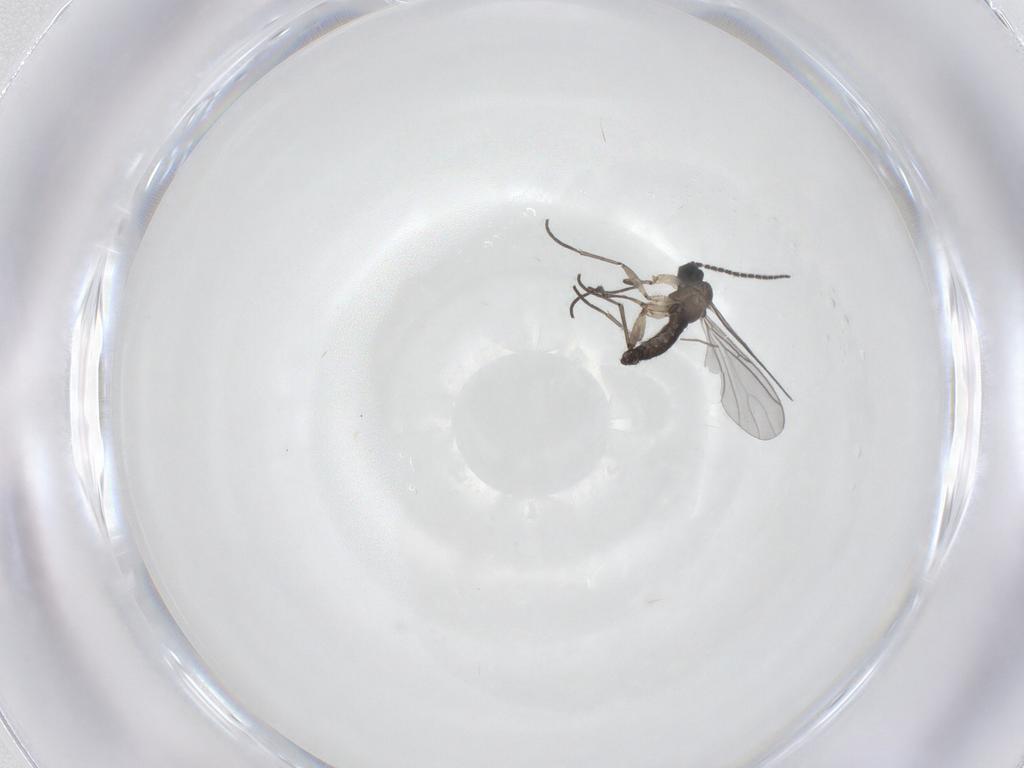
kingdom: Animalia
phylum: Arthropoda
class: Insecta
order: Diptera
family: Sciaridae
